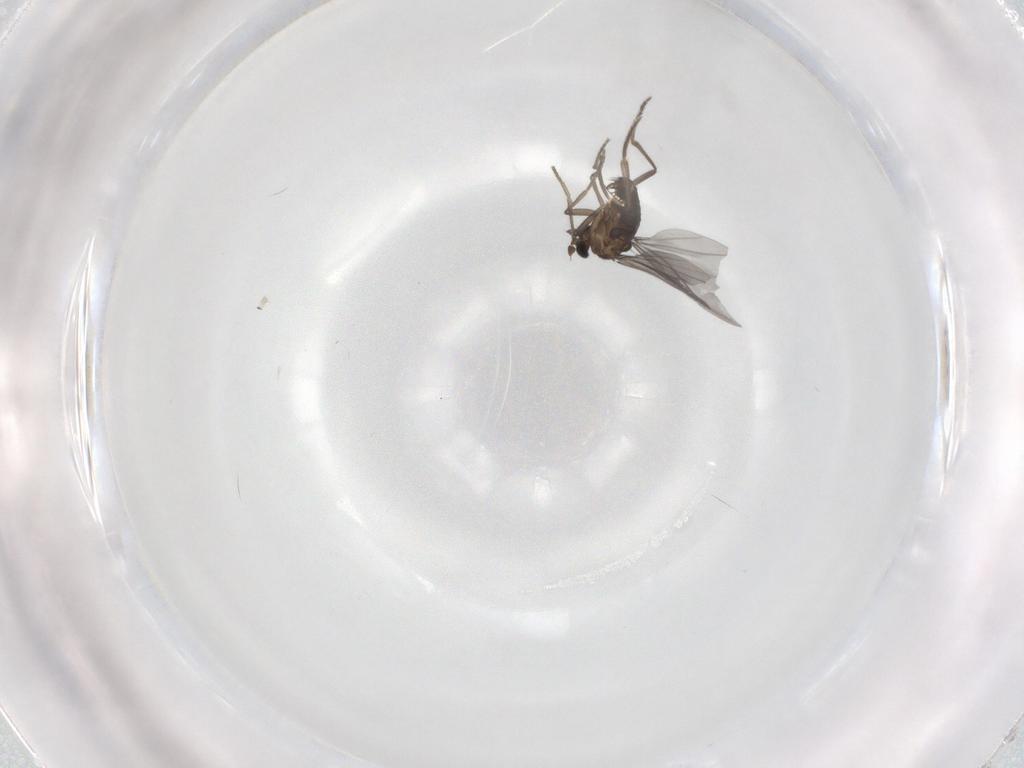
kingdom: Animalia
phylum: Arthropoda
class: Insecta
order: Diptera
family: Phoridae
